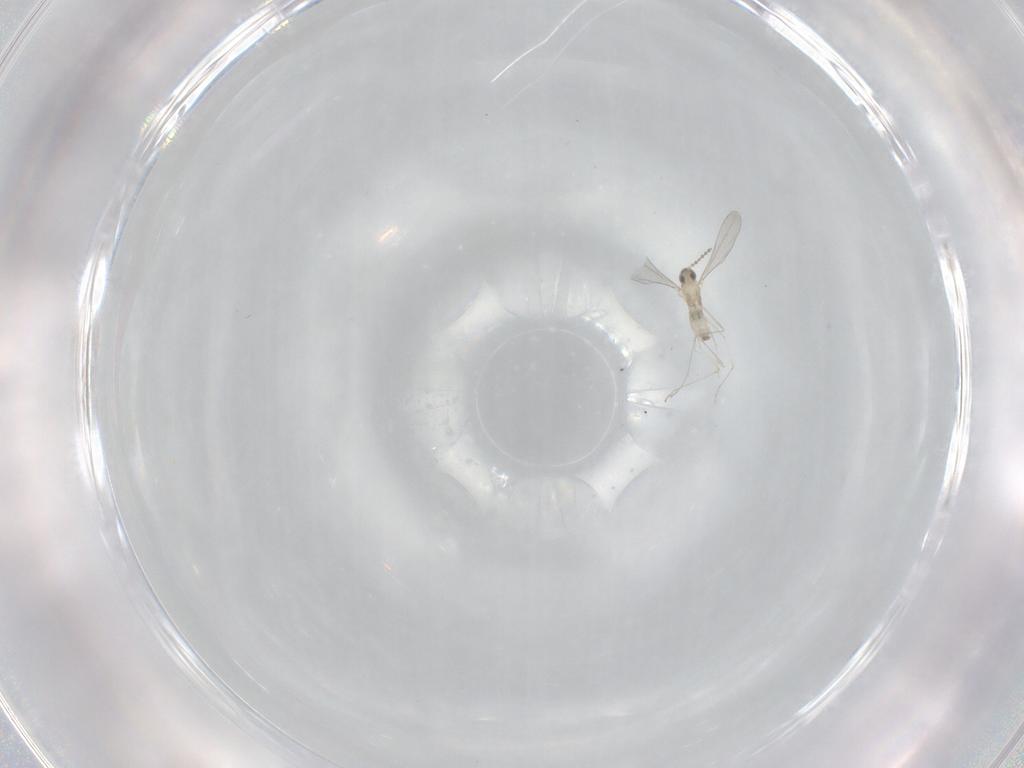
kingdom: Animalia
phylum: Arthropoda
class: Insecta
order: Diptera
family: Cecidomyiidae
